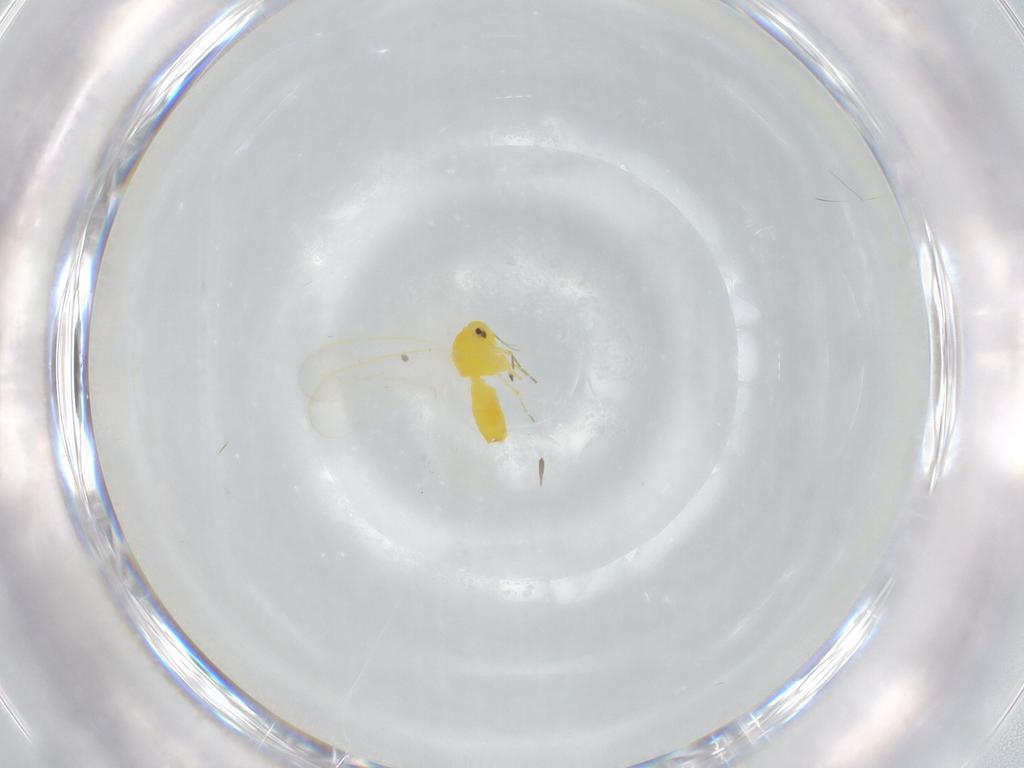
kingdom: Animalia
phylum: Arthropoda
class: Insecta
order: Hemiptera
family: Aleyrodidae
